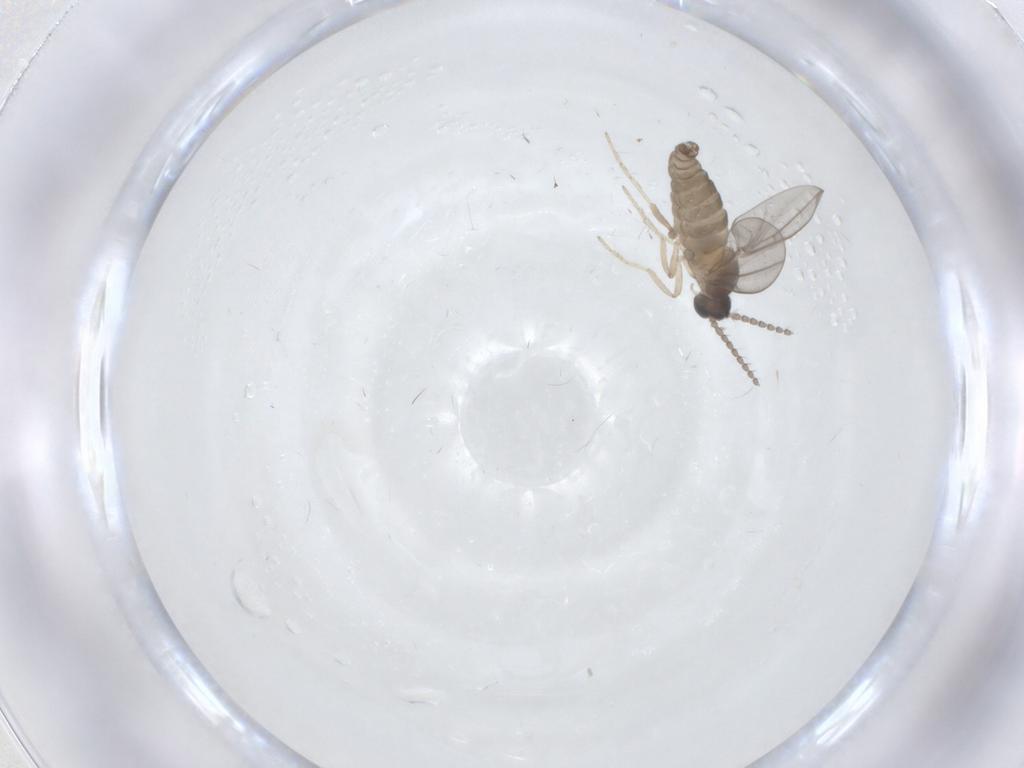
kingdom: Animalia
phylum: Arthropoda
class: Insecta
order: Diptera
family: Cecidomyiidae
